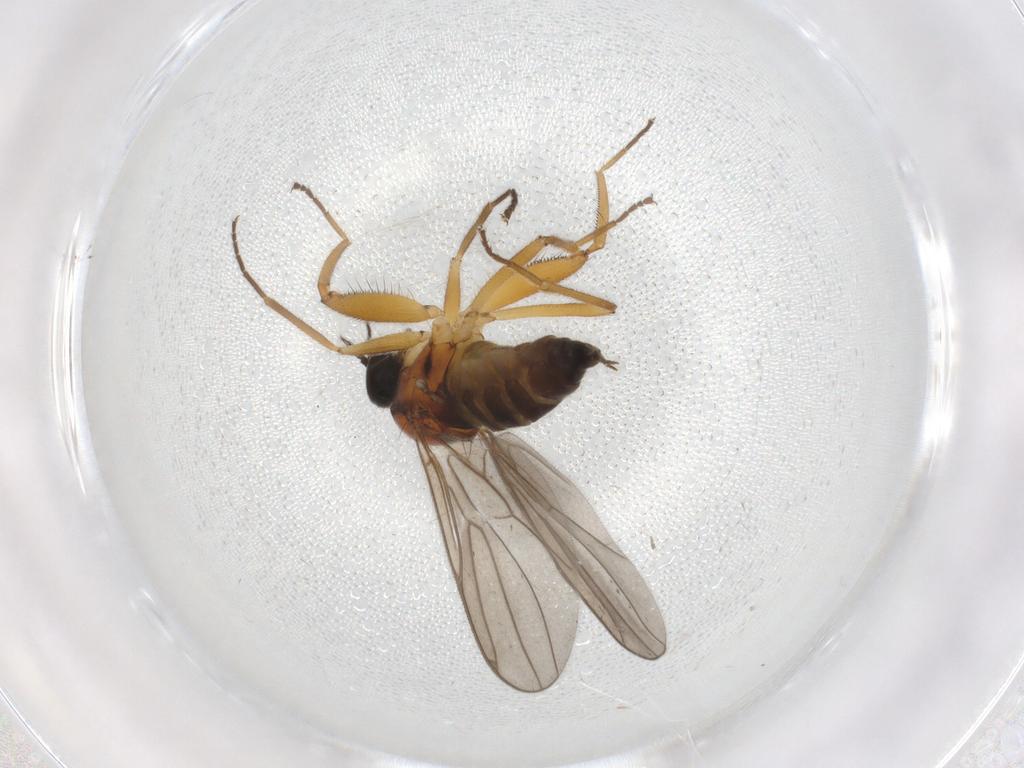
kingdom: Animalia
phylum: Arthropoda
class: Insecta
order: Diptera
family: Hybotidae
